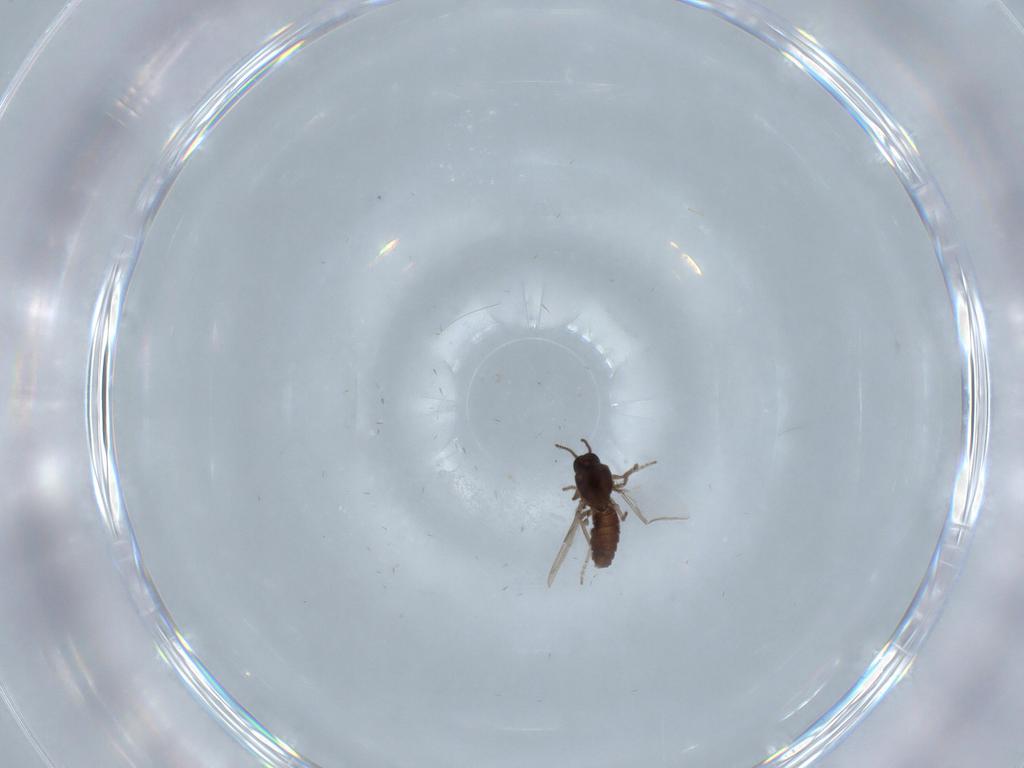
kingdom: Animalia
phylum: Arthropoda
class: Insecta
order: Diptera
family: Ceratopogonidae
